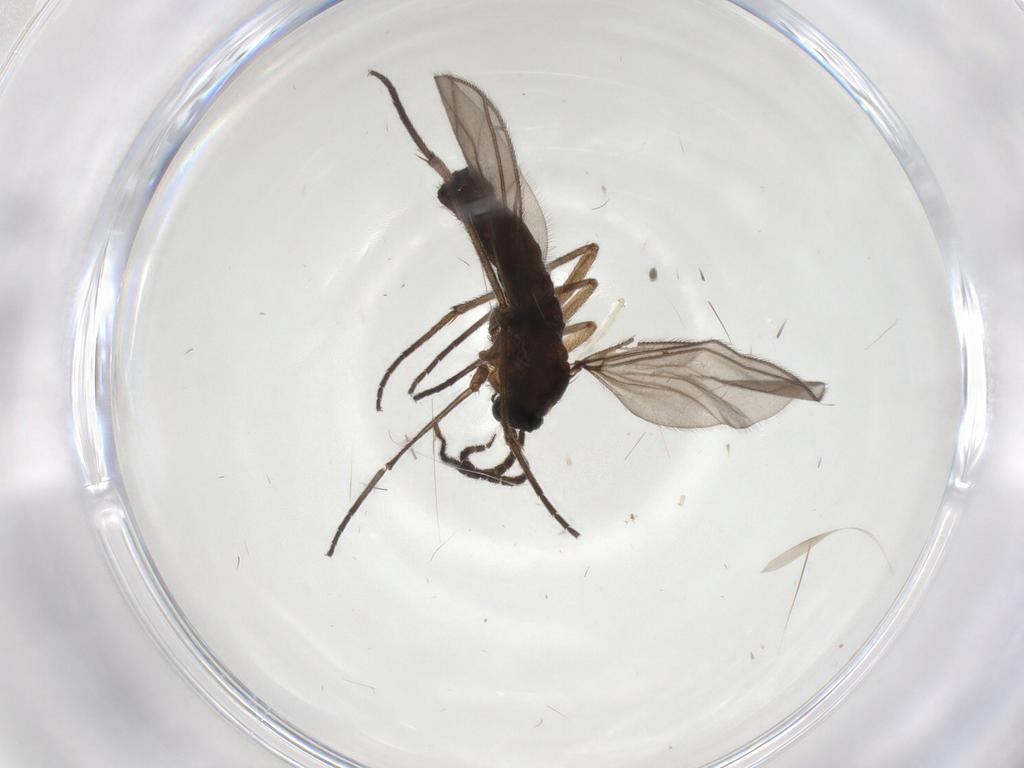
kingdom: Animalia
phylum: Arthropoda
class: Insecta
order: Diptera
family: Sciaridae
